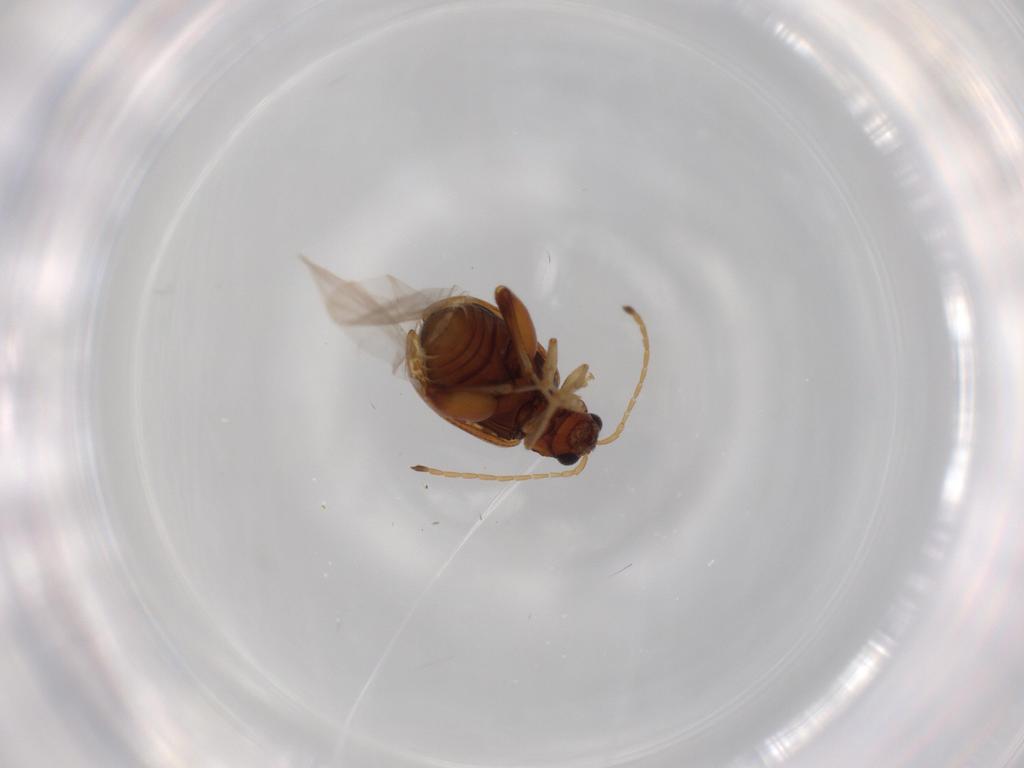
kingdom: Animalia
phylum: Arthropoda
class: Insecta
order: Coleoptera
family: Chrysomelidae
